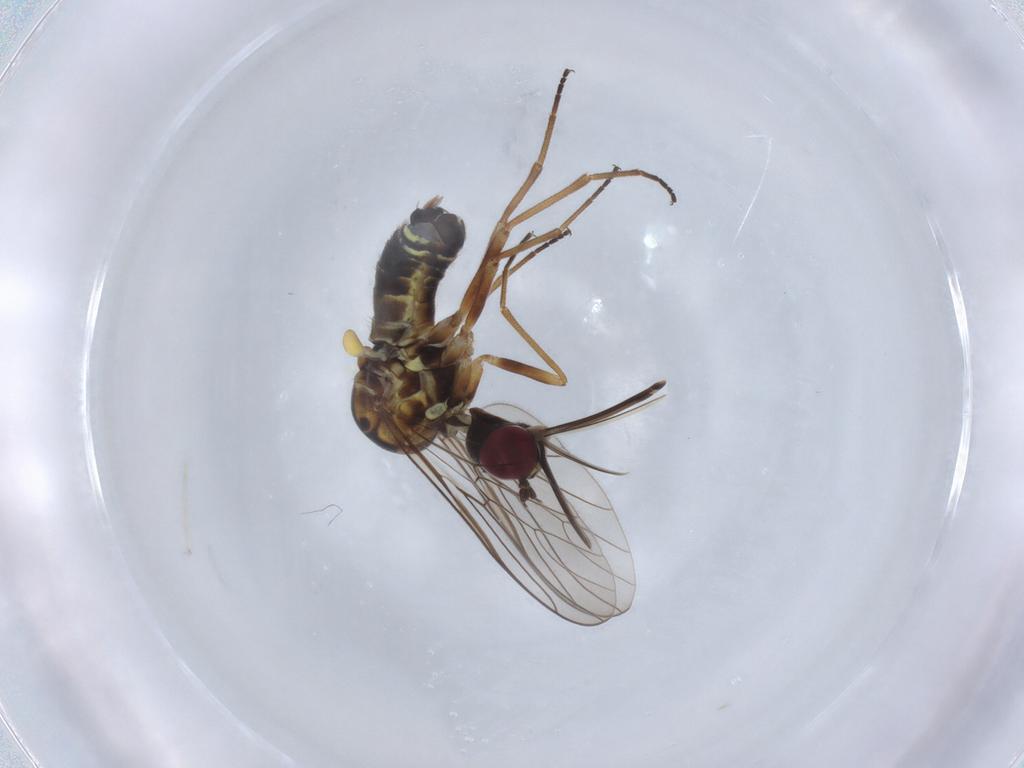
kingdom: Animalia
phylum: Arthropoda
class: Insecta
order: Diptera
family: Bombyliidae
